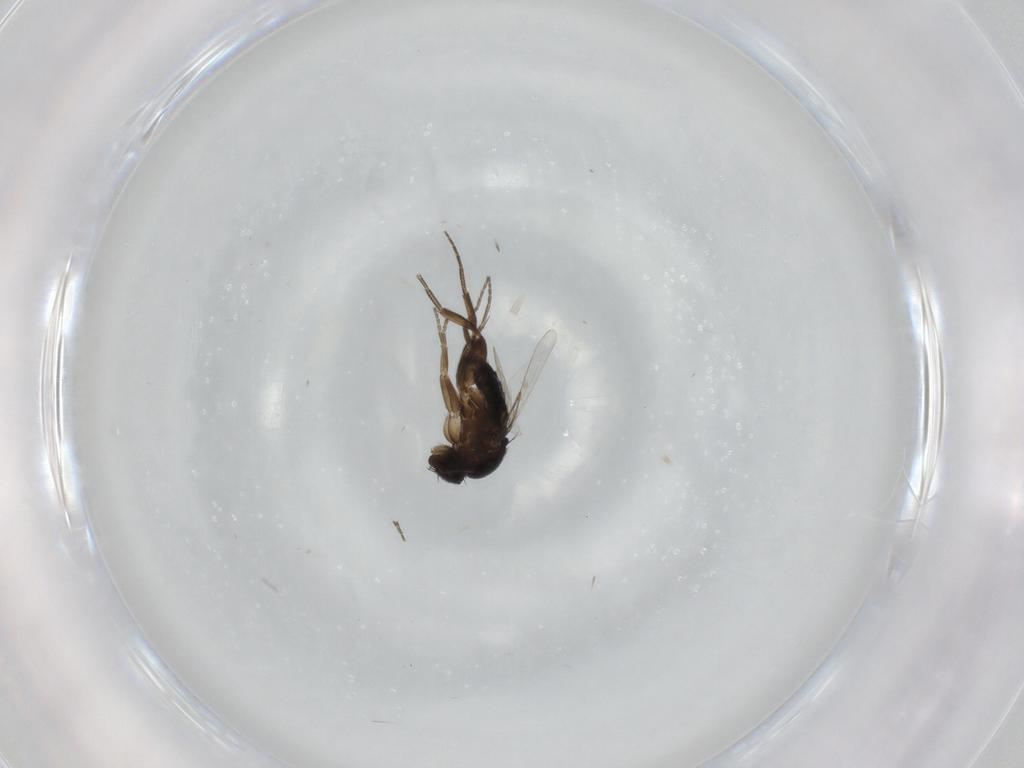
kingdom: Animalia
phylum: Arthropoda
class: Insecta
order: Diptera
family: Phoridae
